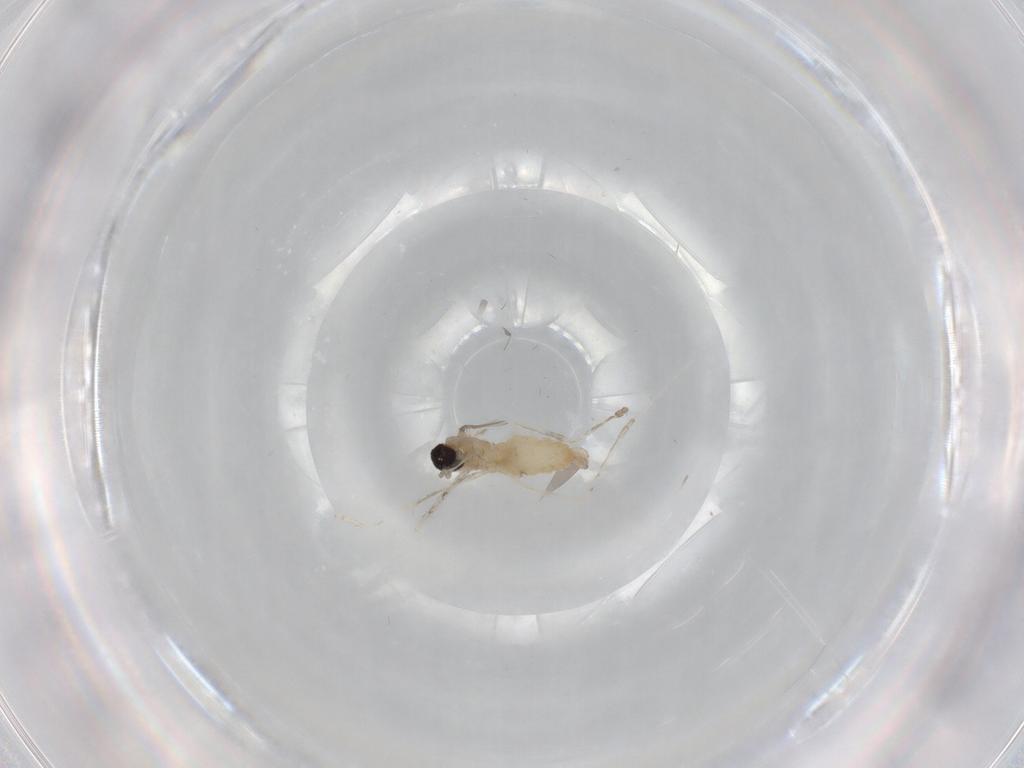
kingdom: Animalia
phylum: Arthropoda
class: Insecta
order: Diptera
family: Cecidomyiidae
